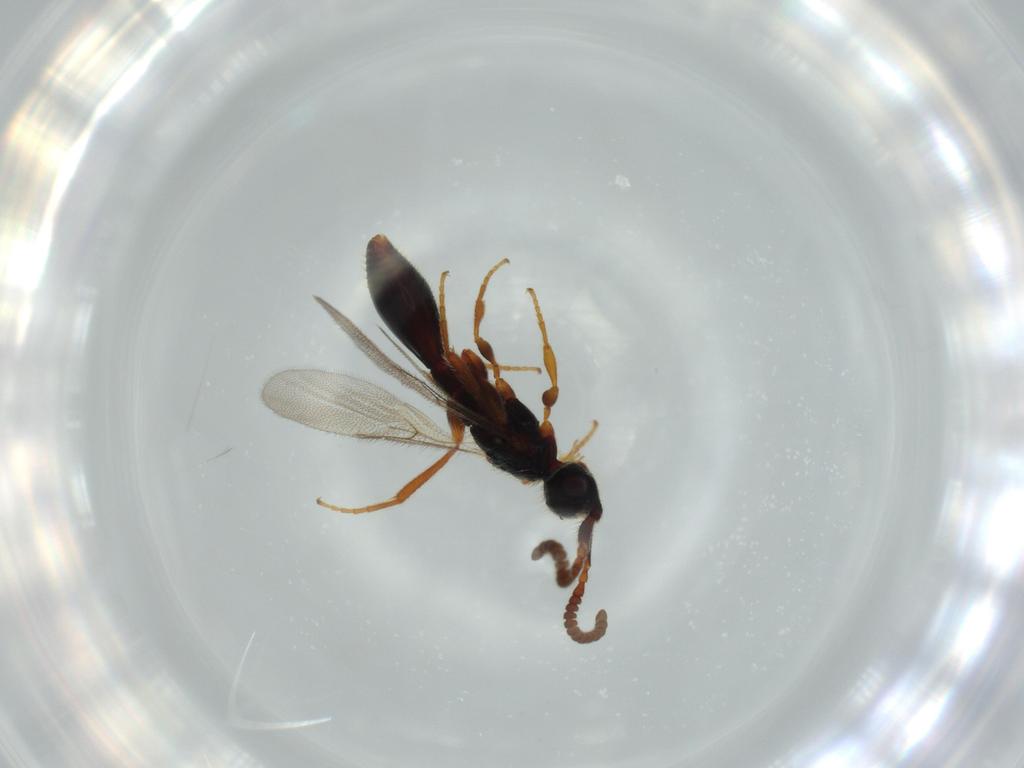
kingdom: Animalia
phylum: Arthropoda
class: Insecta
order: Hymenoptera
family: Diapriidae
